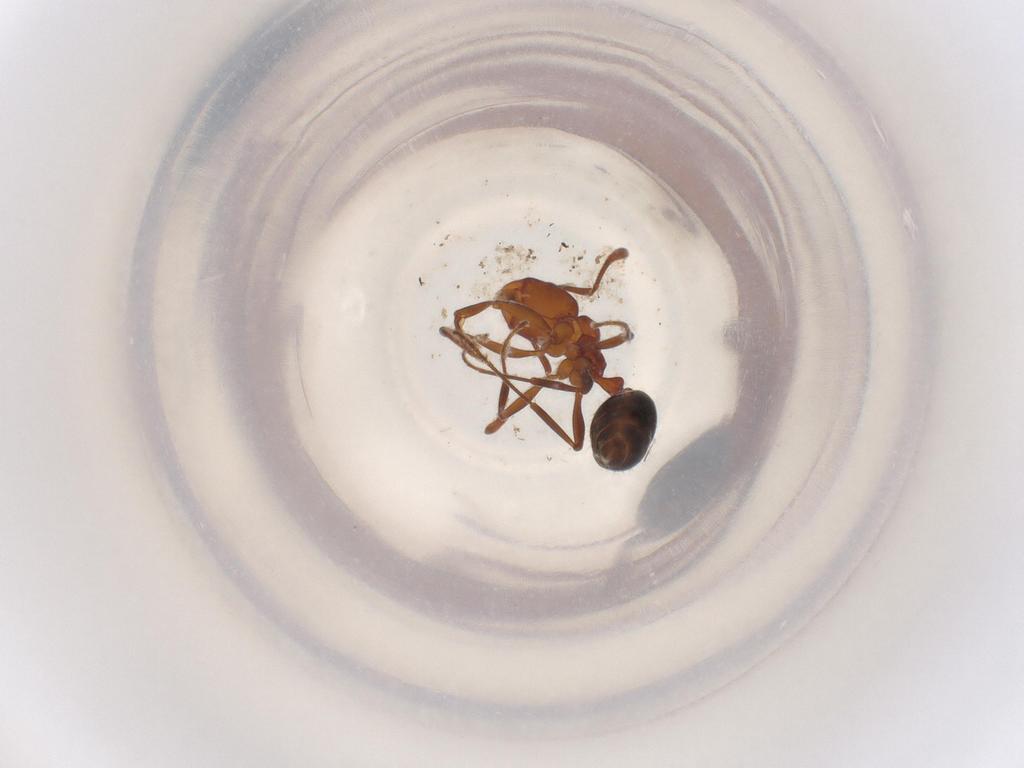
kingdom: Animalia
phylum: Arthropoda
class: Insecta
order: Hymenoptera
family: Formicidae
